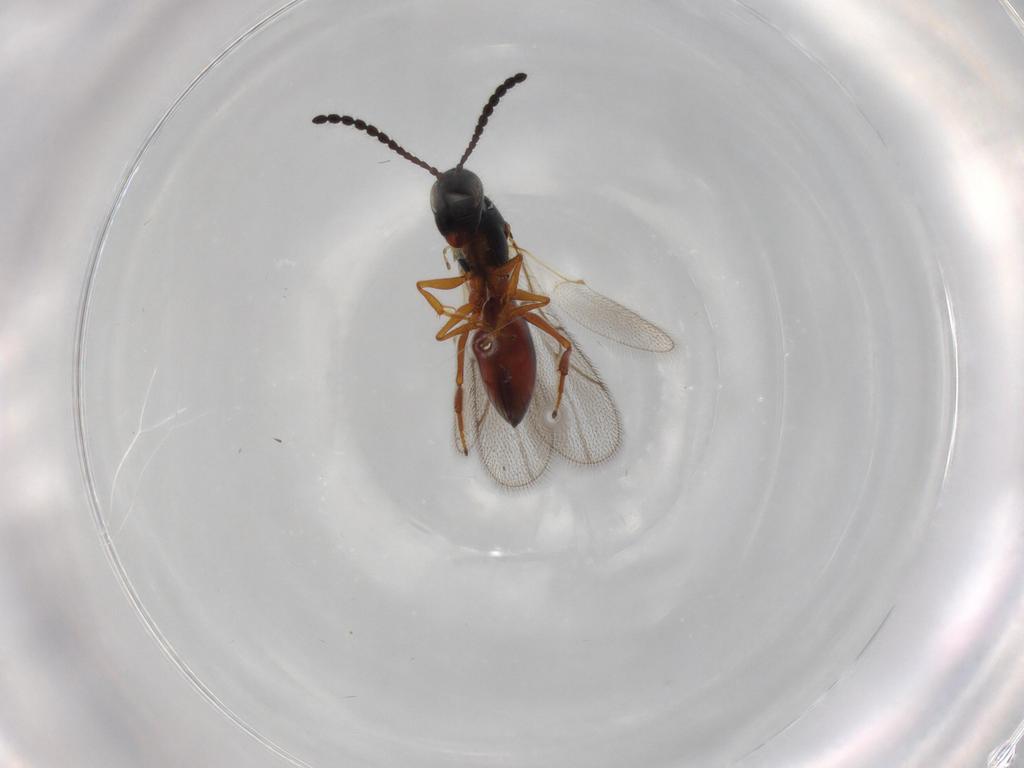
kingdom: Animalia
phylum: Arthropoda
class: Insecta
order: Hymenoptera
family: Figitidae
